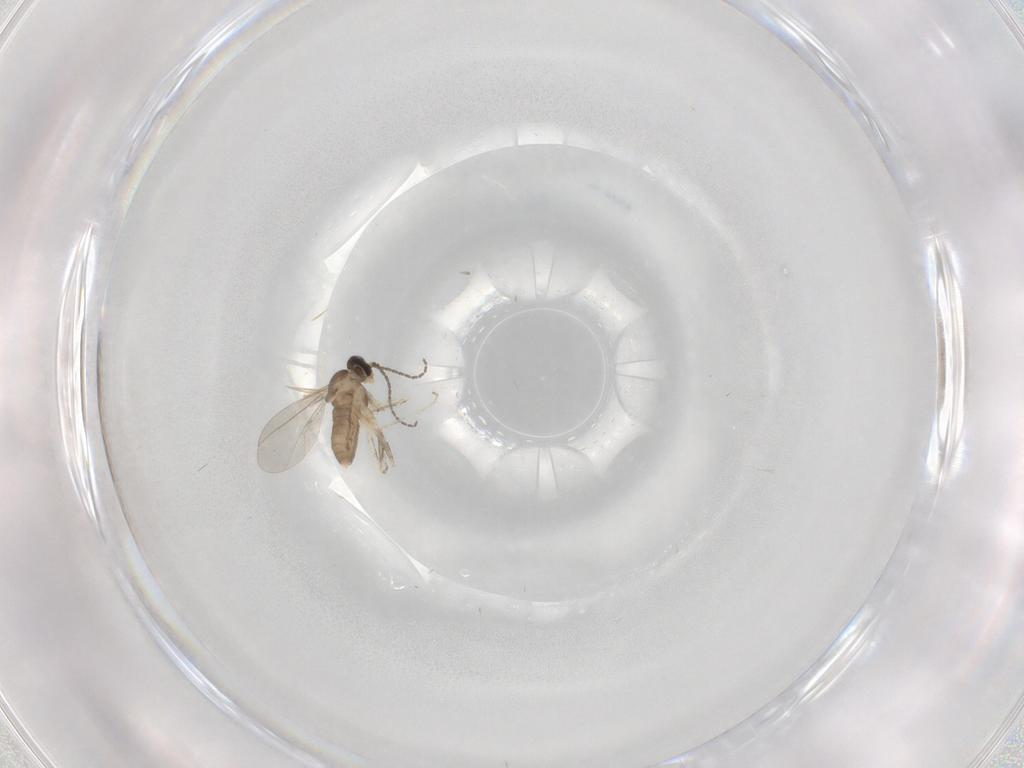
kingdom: Animalia
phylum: Arthropoda
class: Insecta
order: Diptera
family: Cecidomyiidae
